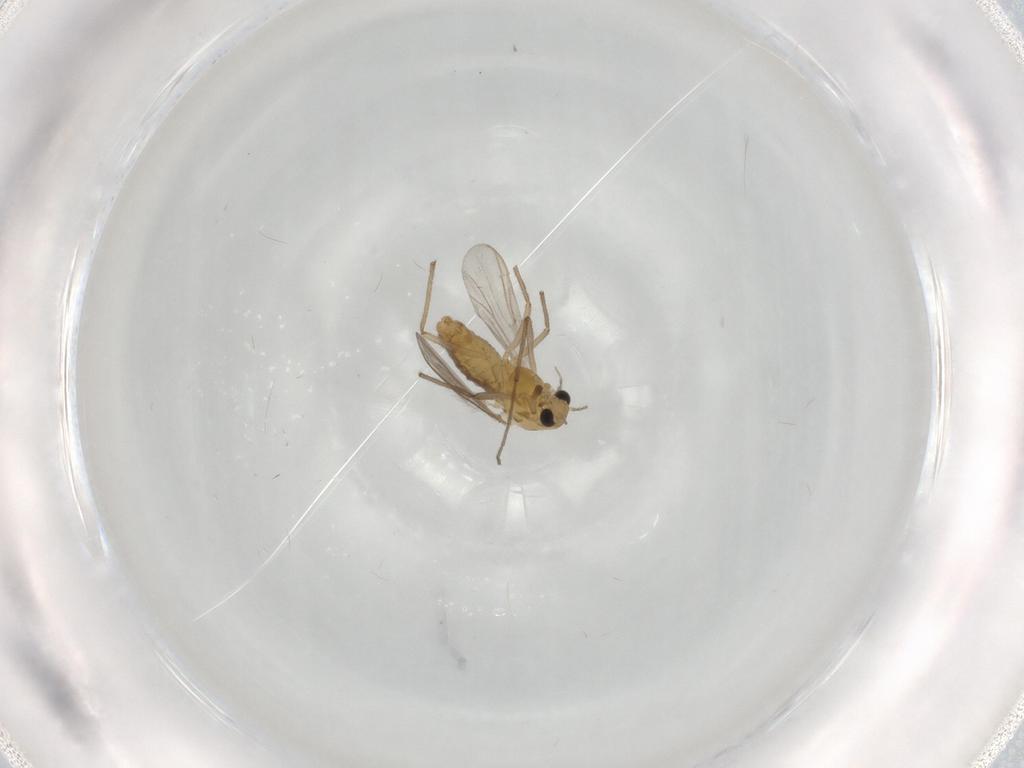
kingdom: Animalia
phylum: Arthropoda
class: Insecta
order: Diptera
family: Chironomidae
